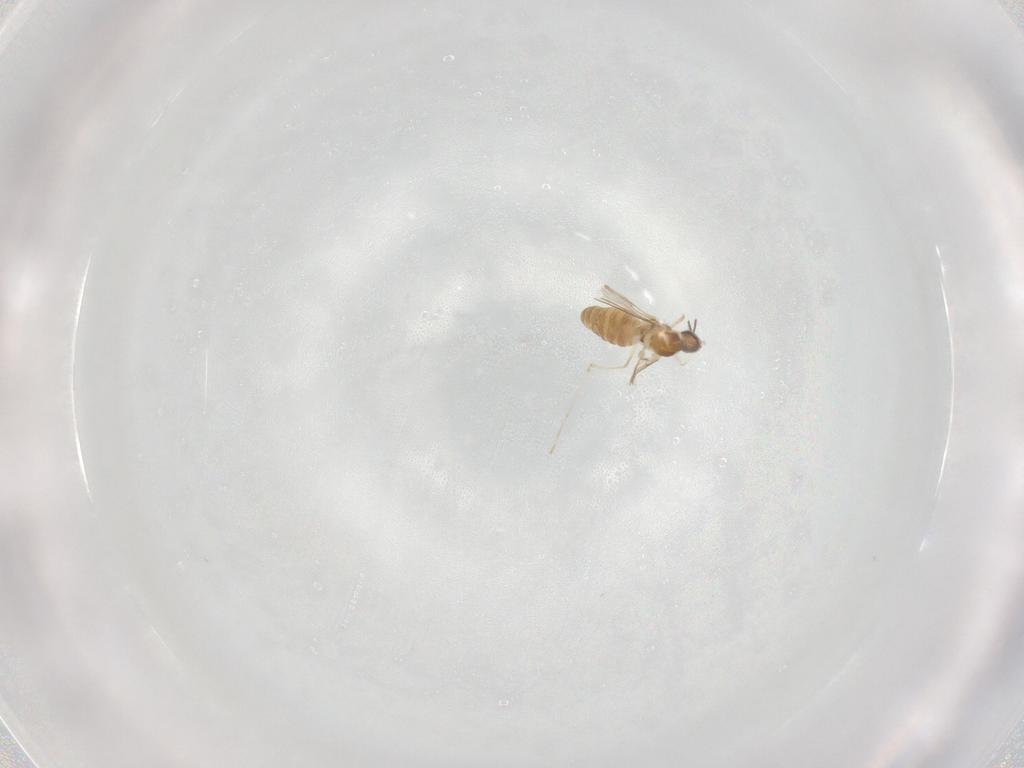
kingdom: Animalia
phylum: Arthropoda
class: Insecta
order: Diptera
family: Cecidomyiidae
